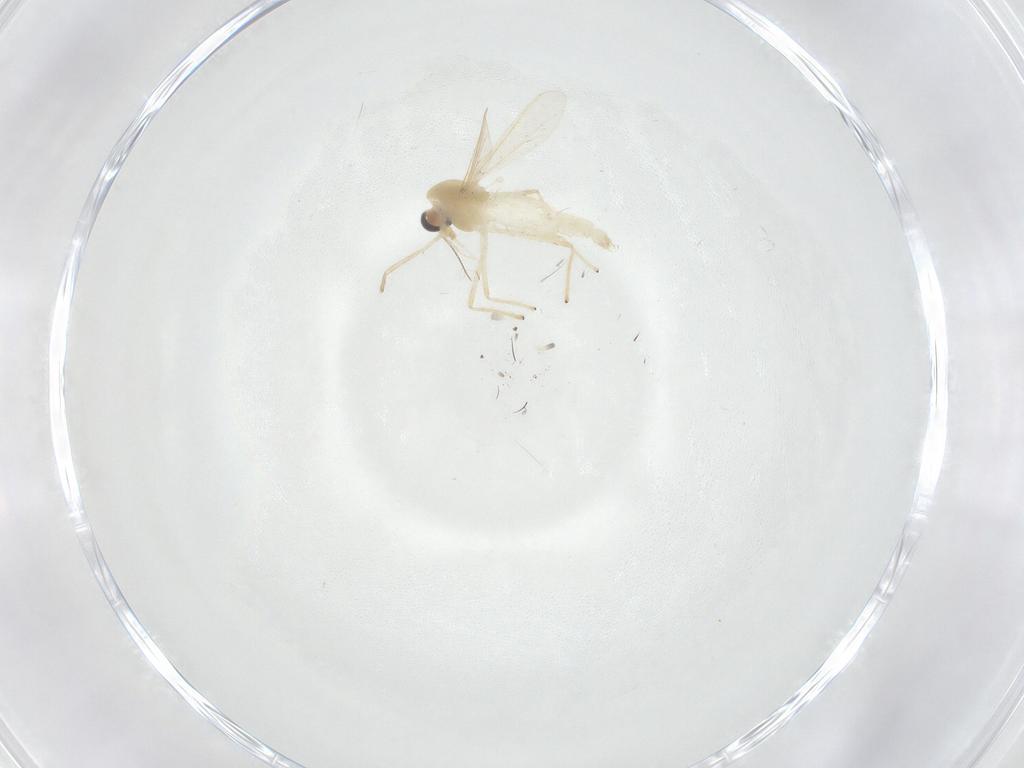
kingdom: Animalia
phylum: Arthropoda
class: Insecta
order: Diptera
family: Chironomidae
